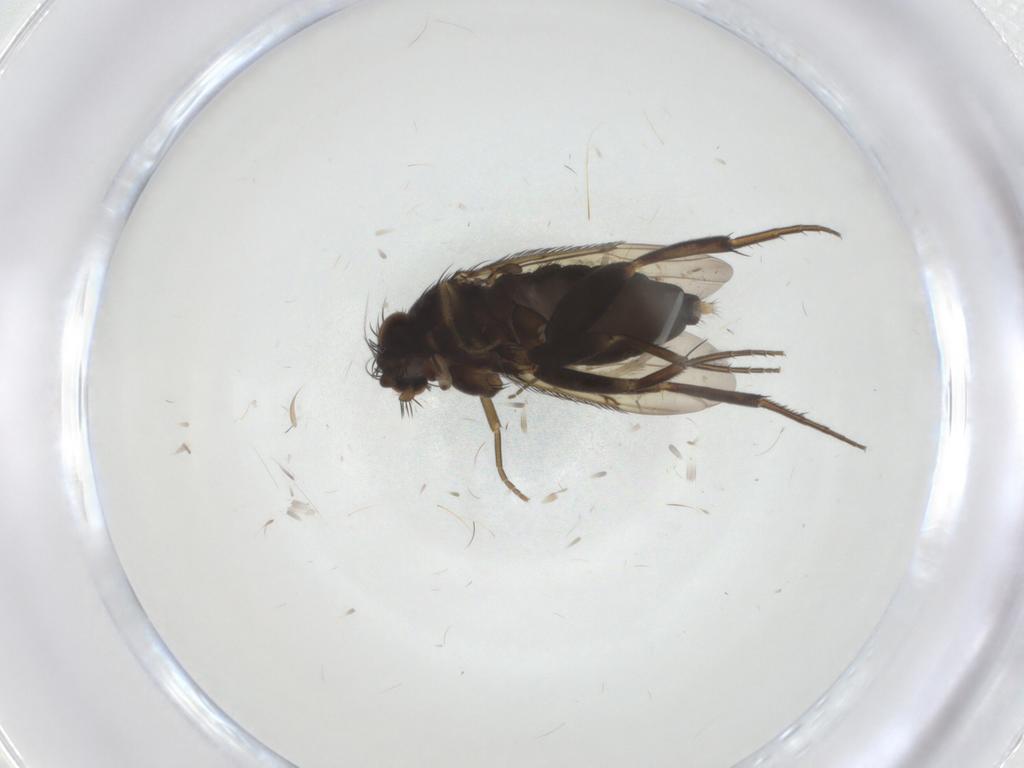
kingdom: Animalia
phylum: Arthropoda
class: Insecta
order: Diptera
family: Phoridae
